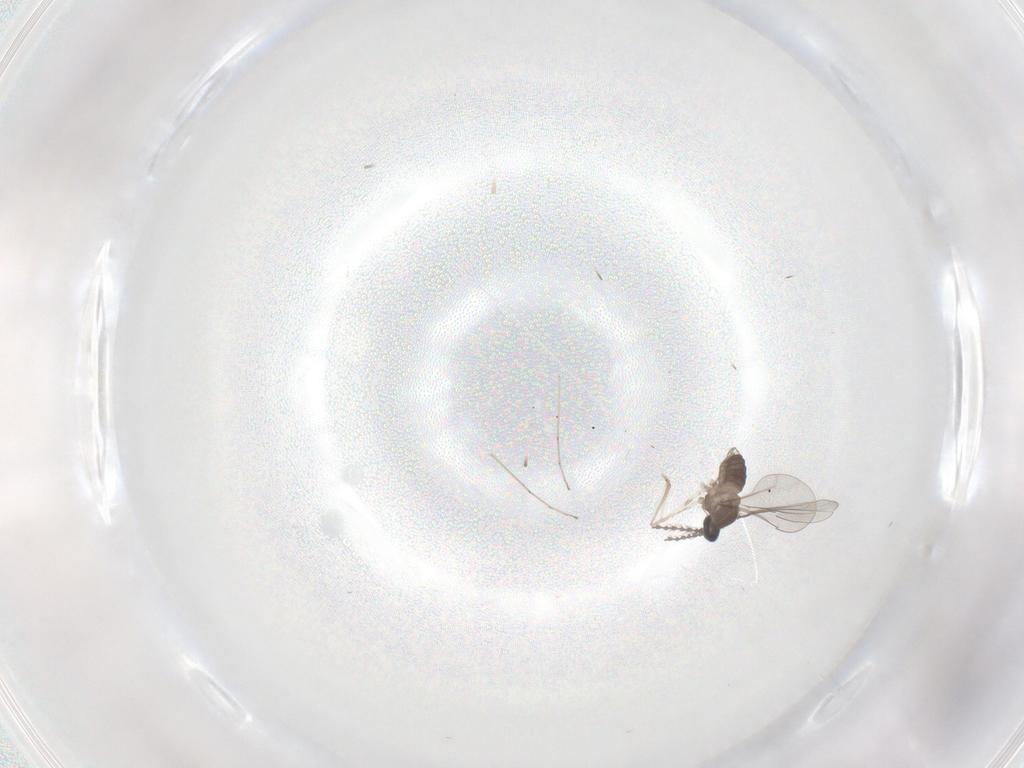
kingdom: Animalia
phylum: Arthropoda
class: Insecta
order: Diptera
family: Cecidomyiidae
